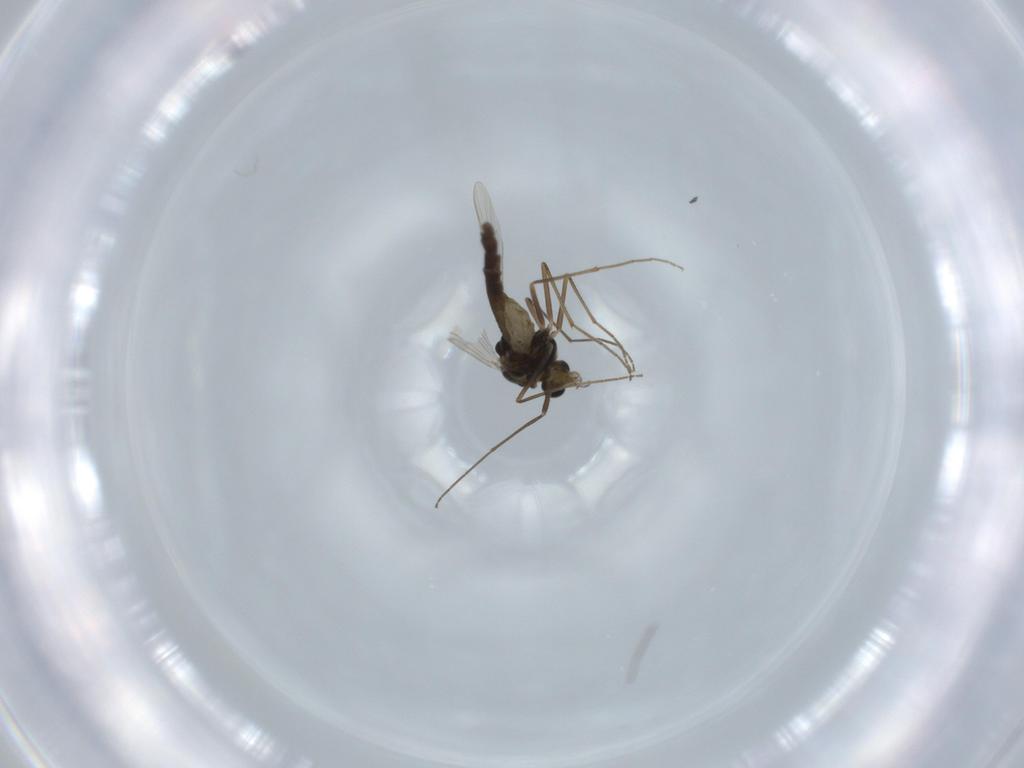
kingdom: Animalia
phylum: Arthropoda
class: Insecta
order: Diptera
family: Chironomidae
